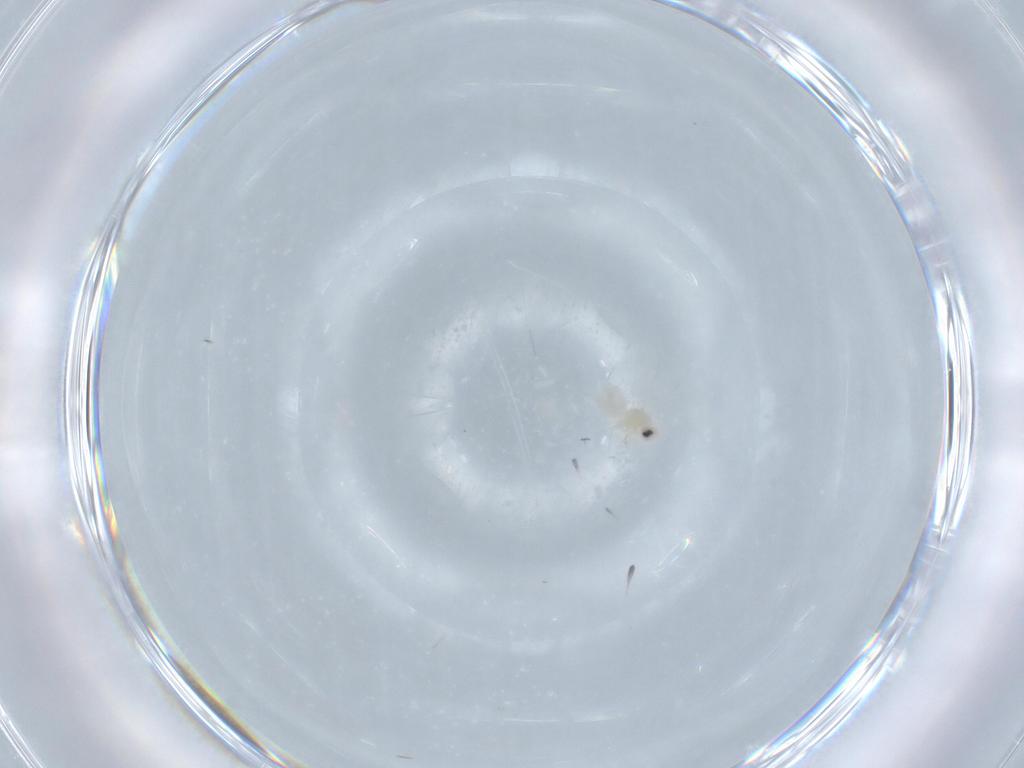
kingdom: Animalia
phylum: Arthropoda
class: Insecta
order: Hemiptera
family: Aleyrodidae
